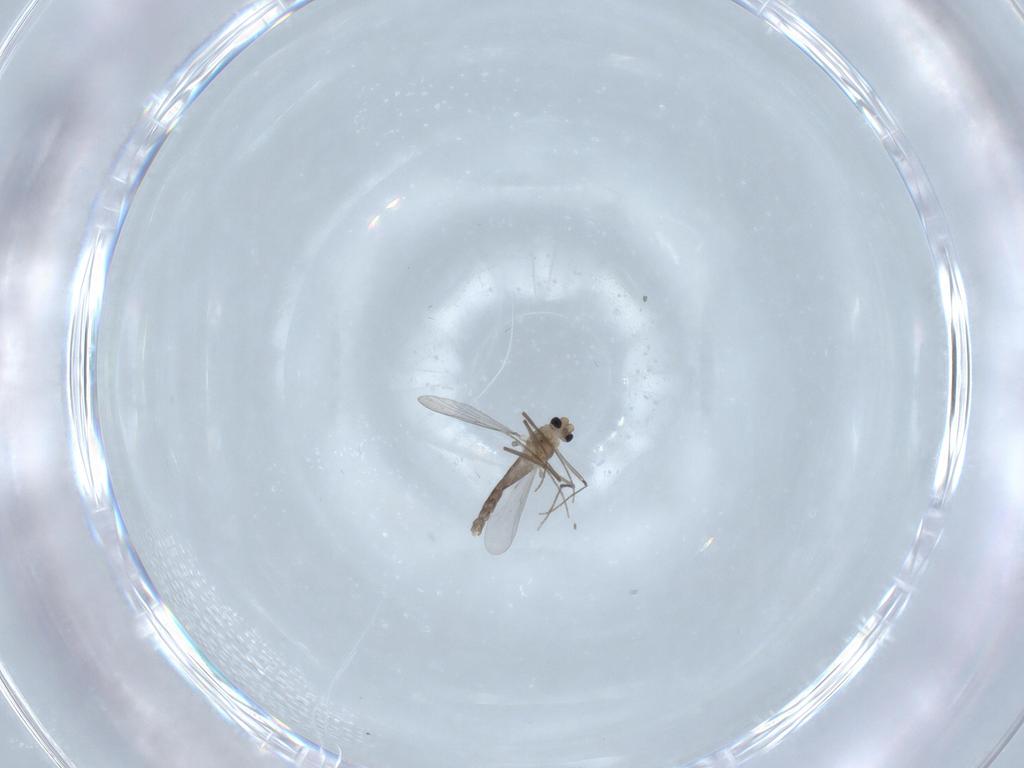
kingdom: Animalia
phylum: Arthropoda
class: Insecta
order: Diptera
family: Chironomidae
